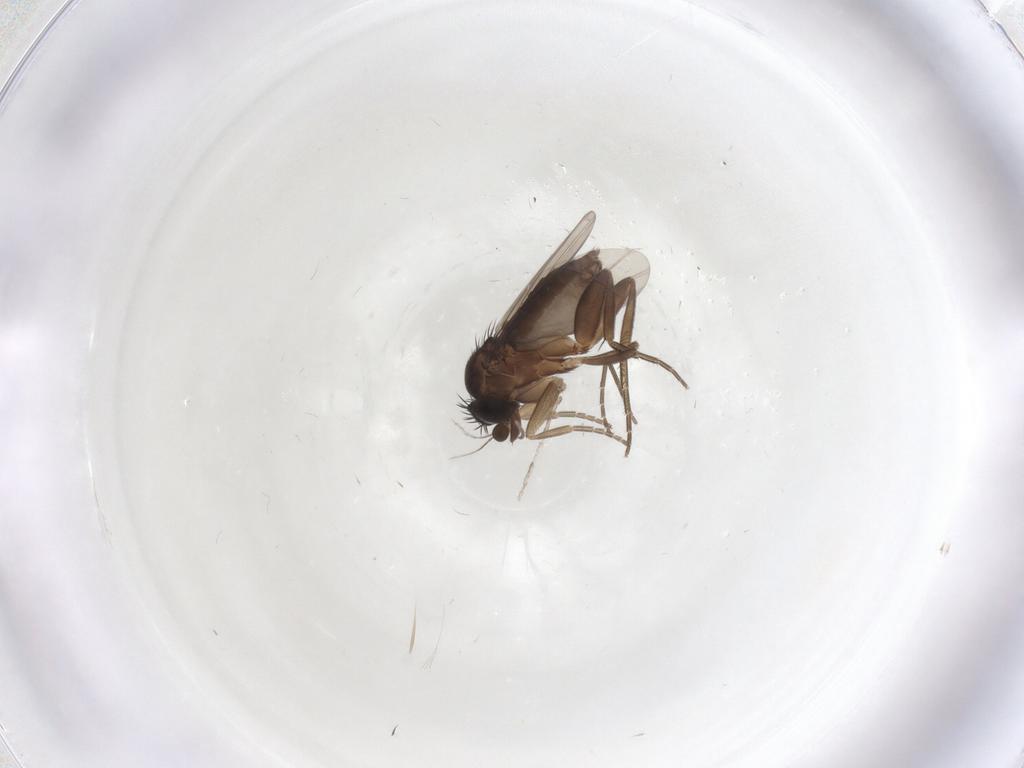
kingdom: Animalia
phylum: Arthropoda
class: Insecta
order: Diptera
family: Phoridae
